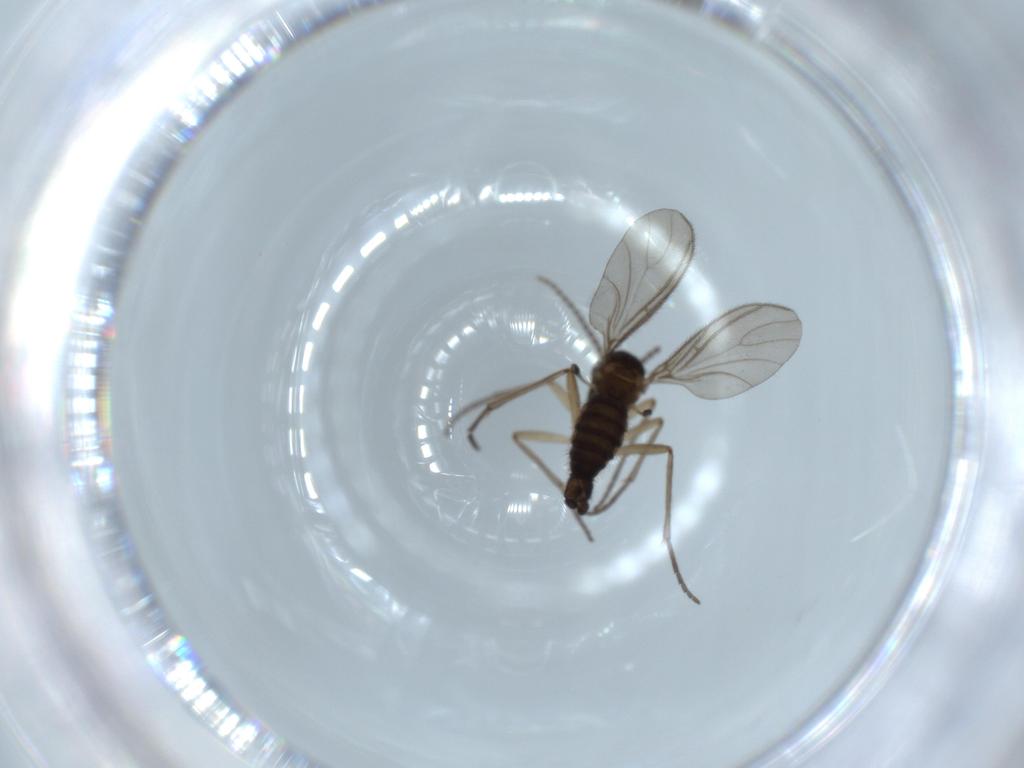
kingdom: Animalia
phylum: Arthropoda
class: Insecta
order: Diptera
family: Sciaridae
